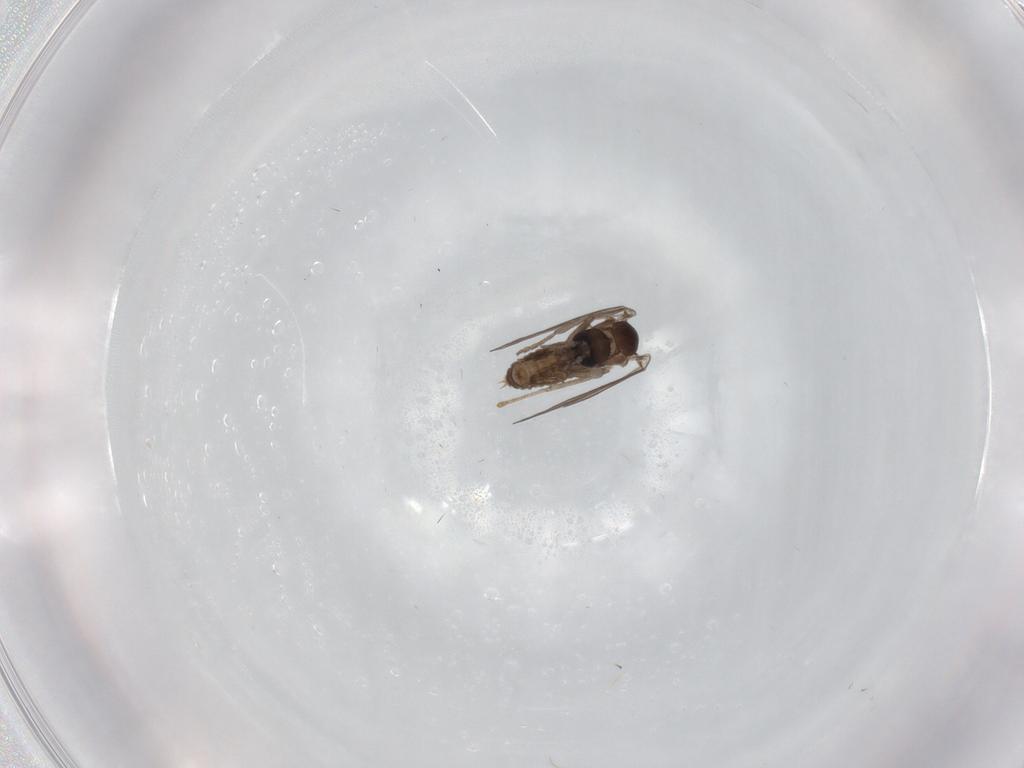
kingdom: Animalia
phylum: Arthropoda
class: Insecta
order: Diptera
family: Psychodidae
